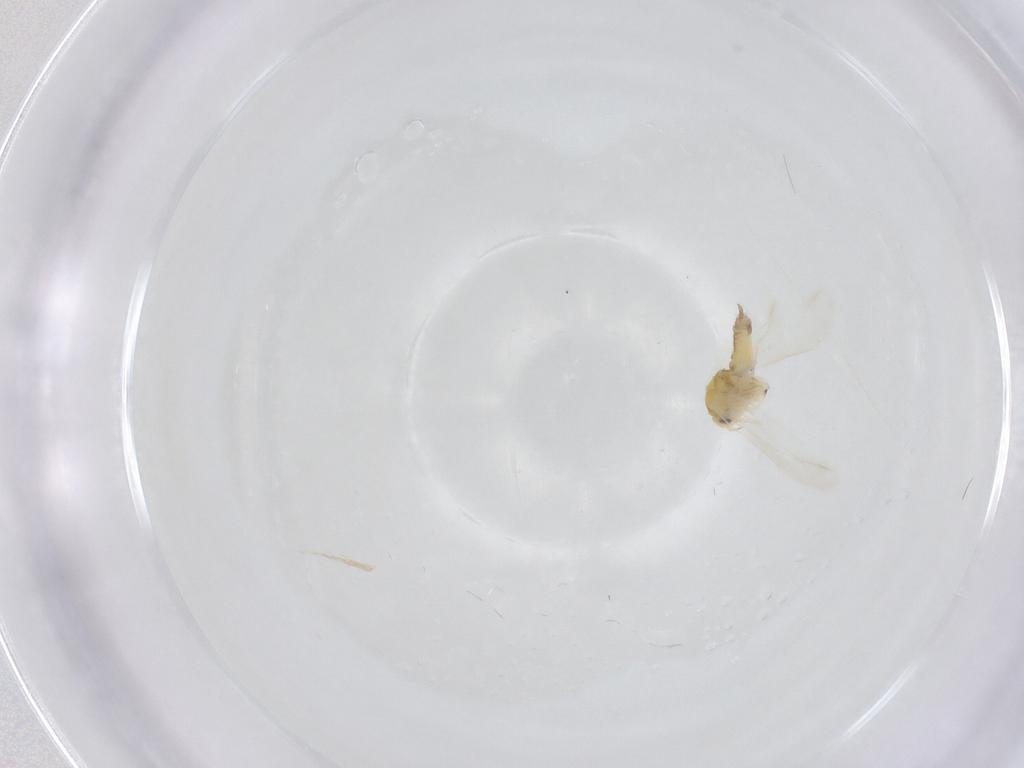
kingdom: Animalia
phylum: Arthropoda
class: Insecta
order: Hemiptera
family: Aleyrodidae
